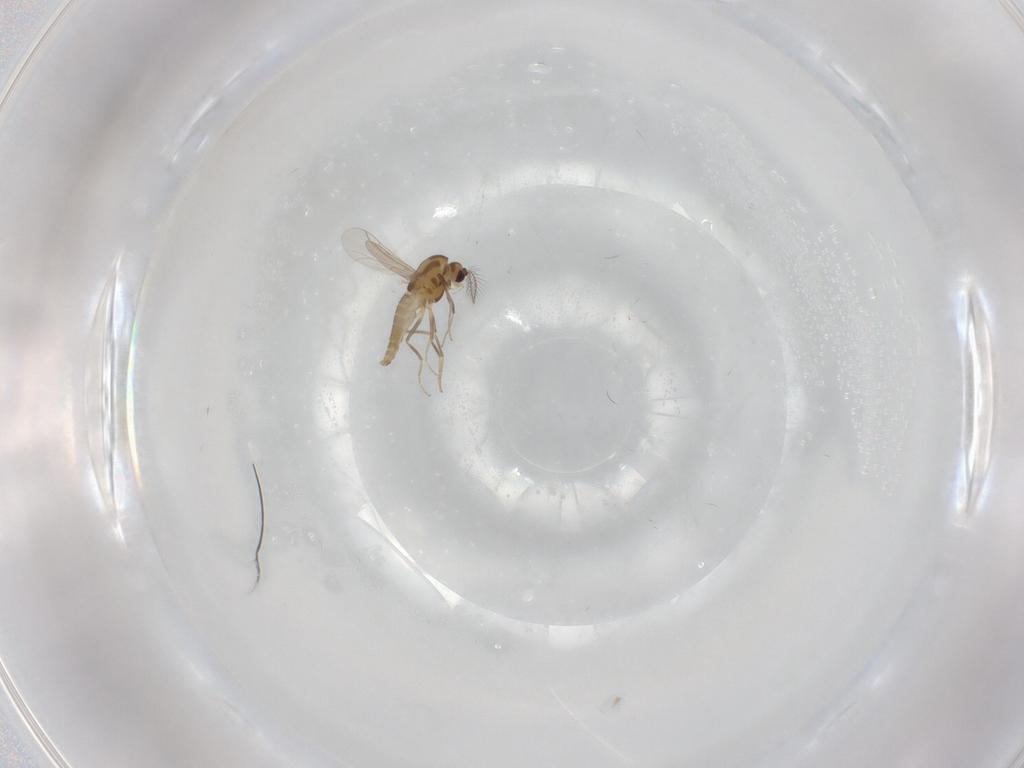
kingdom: Animalia
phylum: Arthropoda
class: Insecta
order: Diptera
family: Chironomidae
